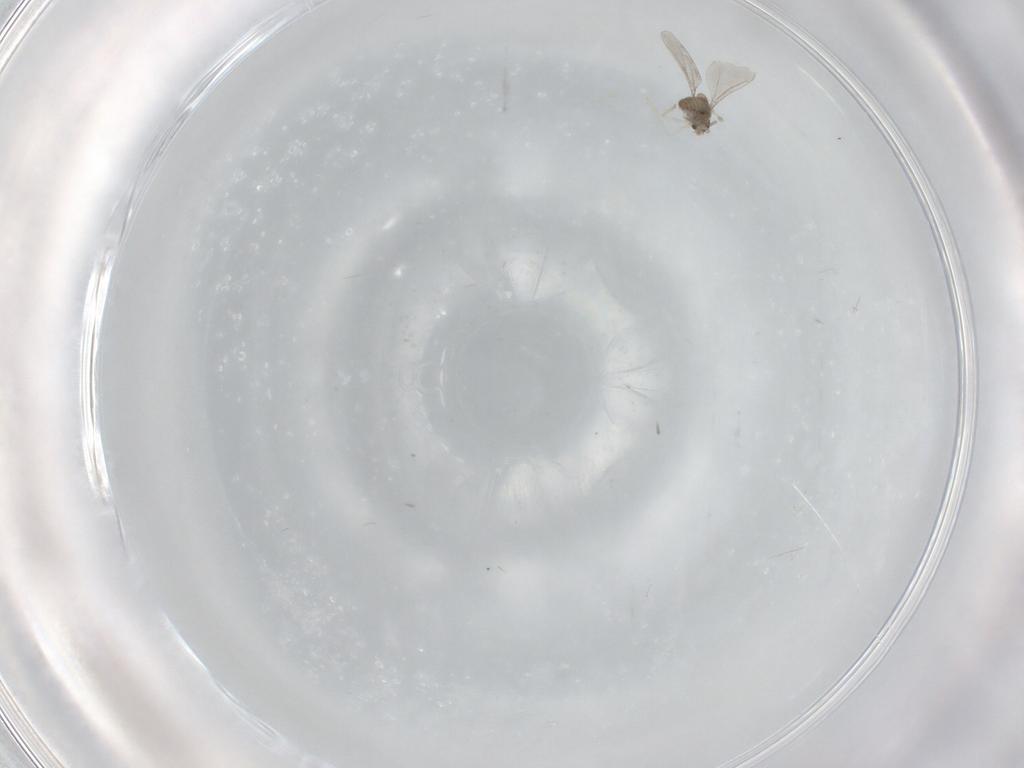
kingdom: Animalia
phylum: Arthropoda
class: Insecta
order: Diptera
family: Cecidomyiidae
